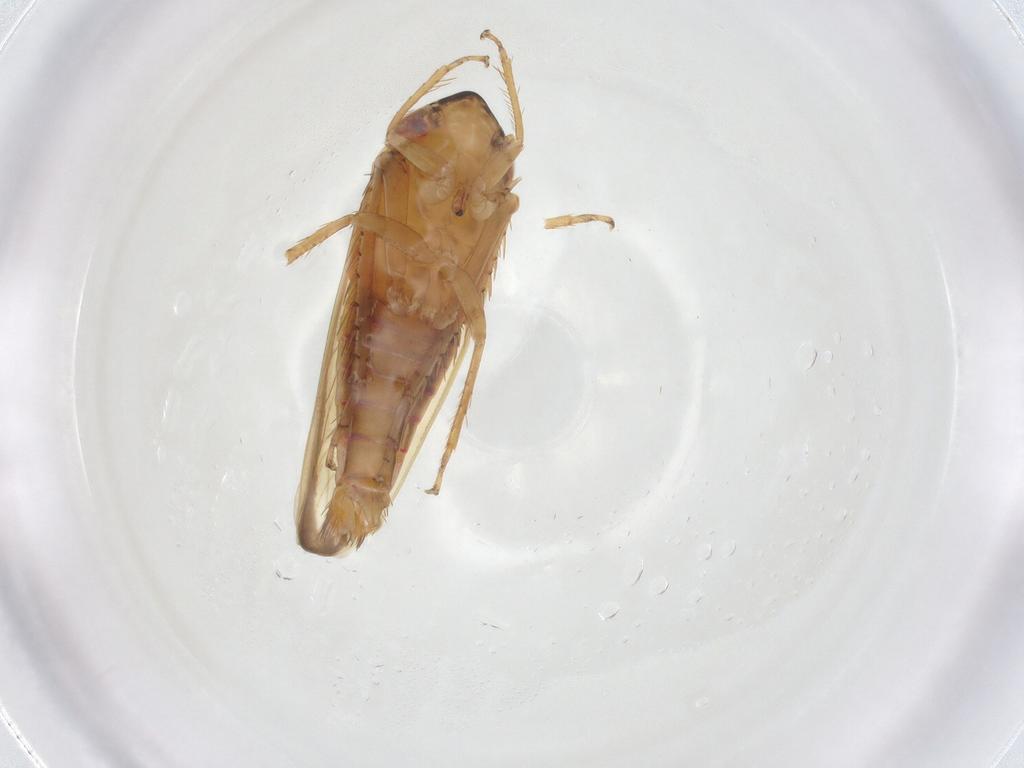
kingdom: Animalia
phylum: Arthropoda
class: Insecta
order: Hemiptera
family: Cicadellidae
